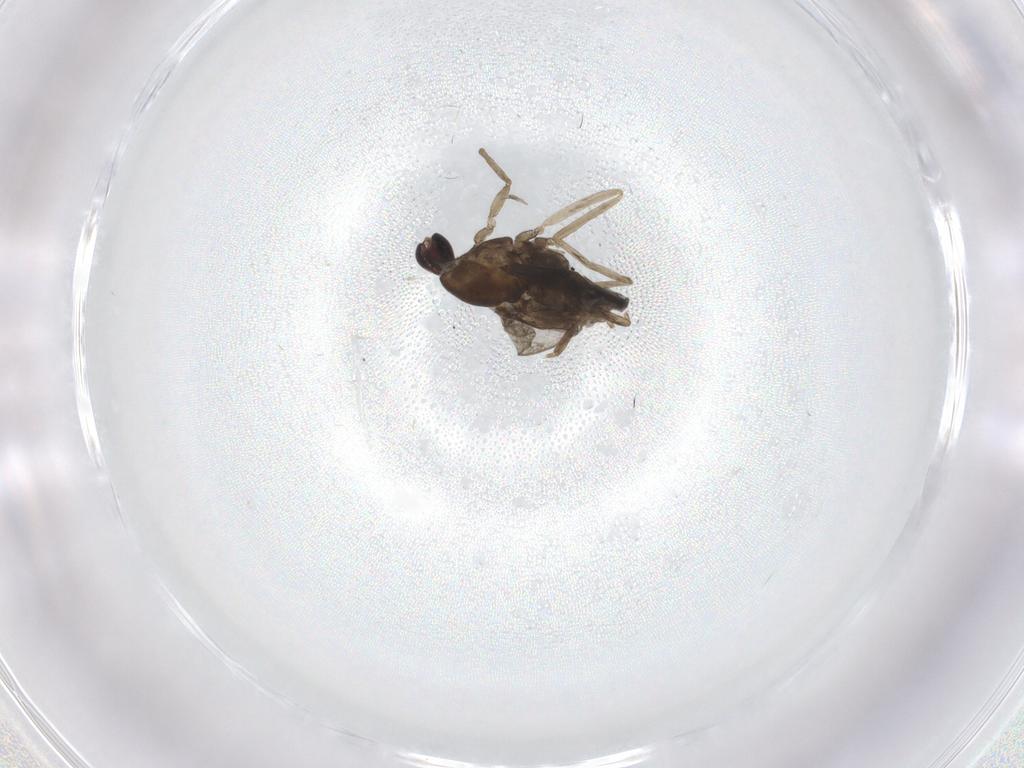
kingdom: Animalia
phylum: Arthropoda
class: Insecta
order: Diptera
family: Cecidomyiidae
